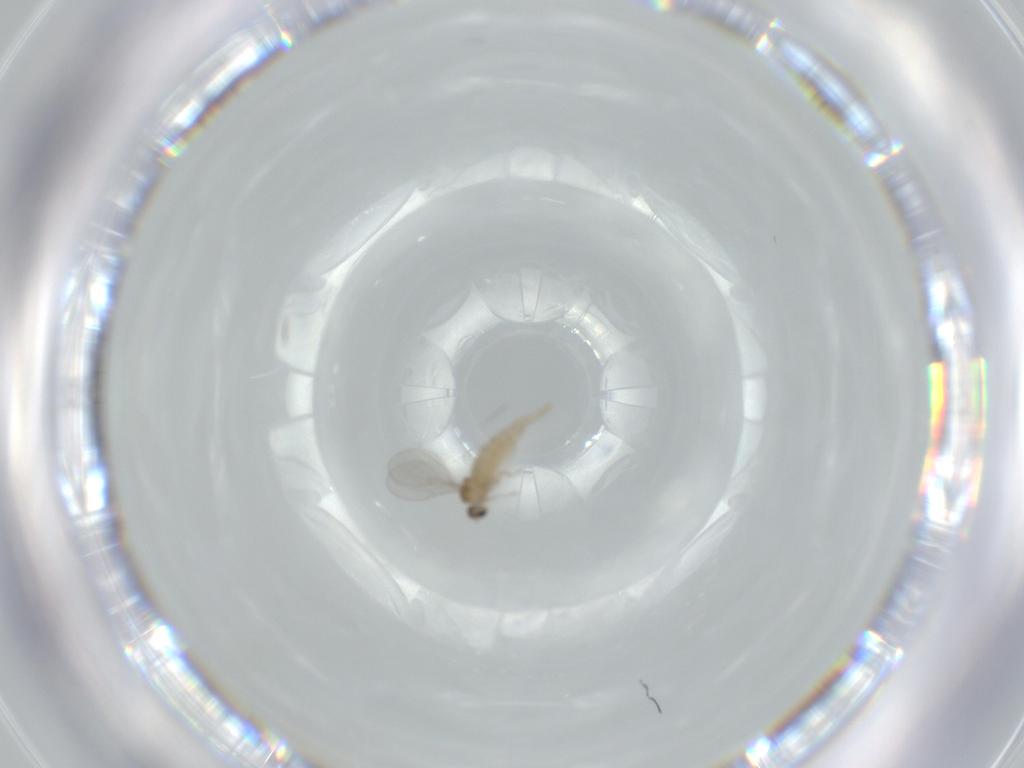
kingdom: Animalia
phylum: Arthropoda
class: Insecta
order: Diptera
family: Cecidomyiidae
